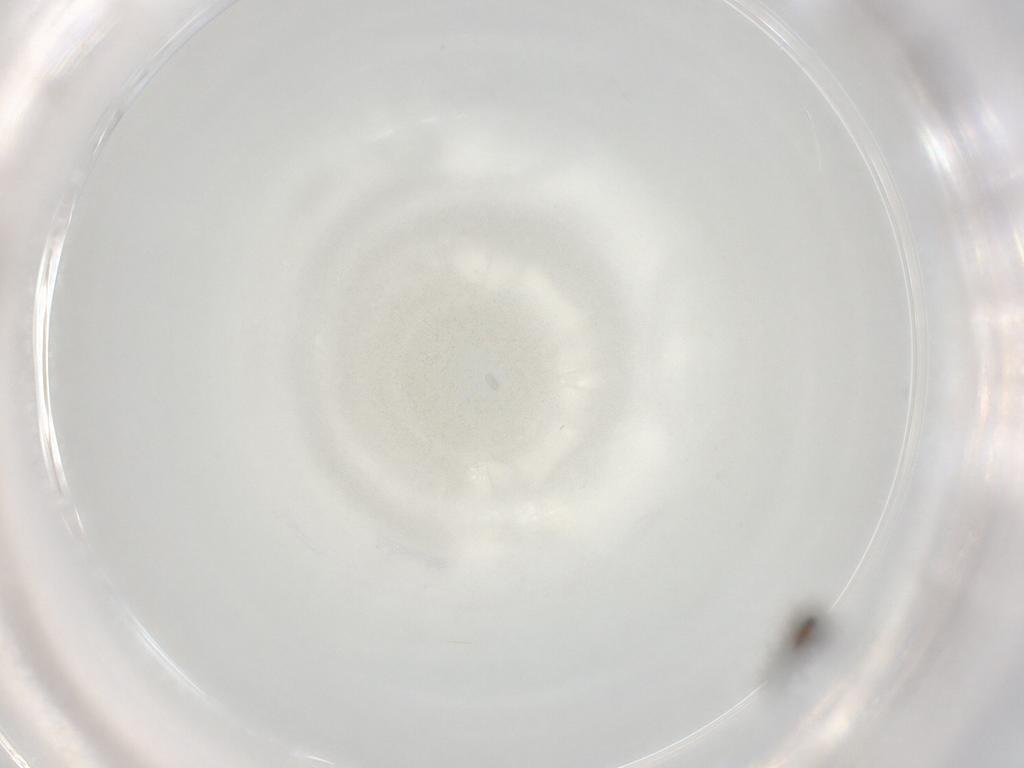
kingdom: Animalia
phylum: Arthropoda
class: Insecta
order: Diptera
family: Chironomidae
